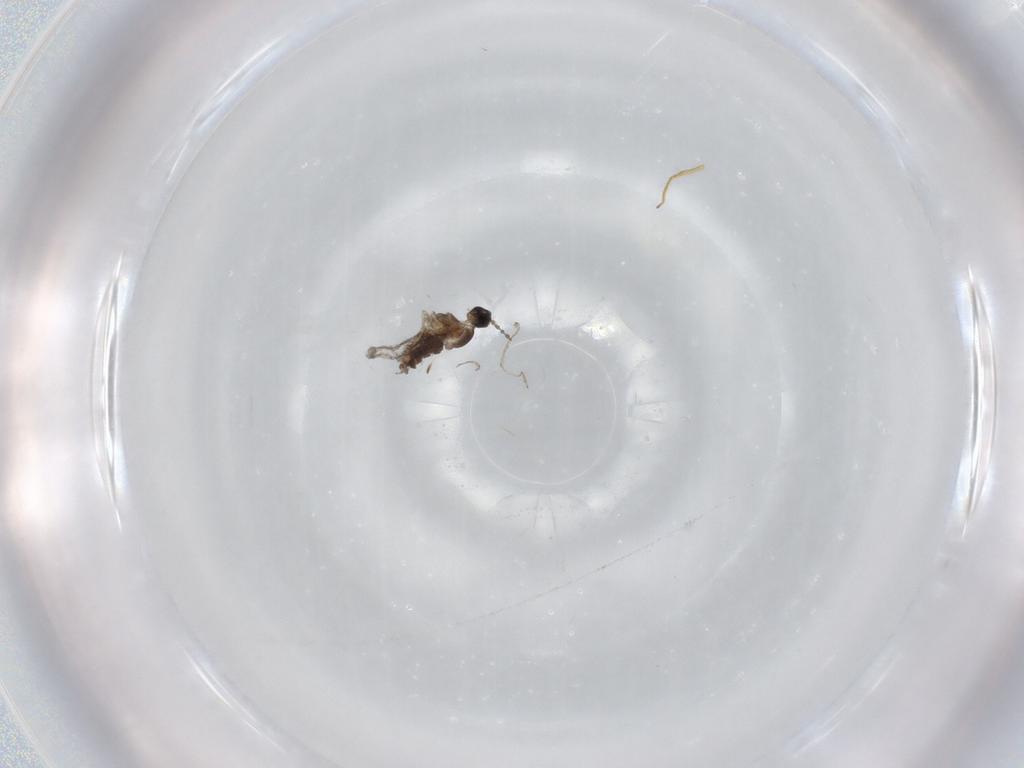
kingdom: Animalia
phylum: Arthropoda
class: Insecta
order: Diptera
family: Cecidomyiidae
